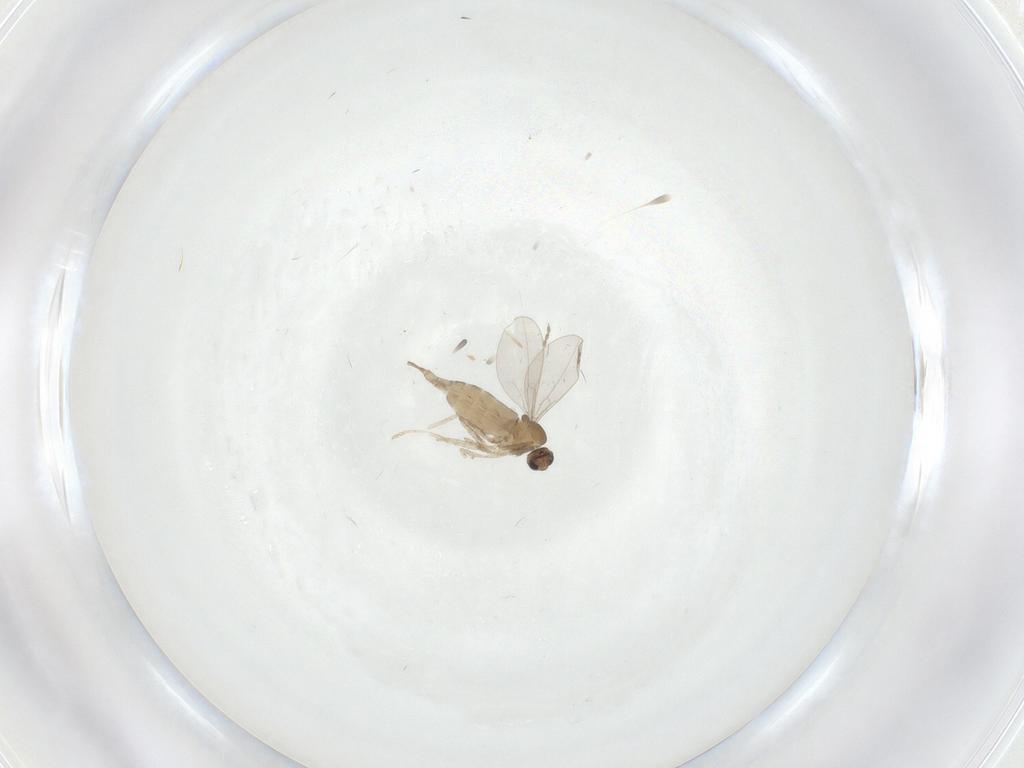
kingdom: Animalia
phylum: Arthropoda
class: Insecta
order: Diptera
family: Cecidomyiidae
